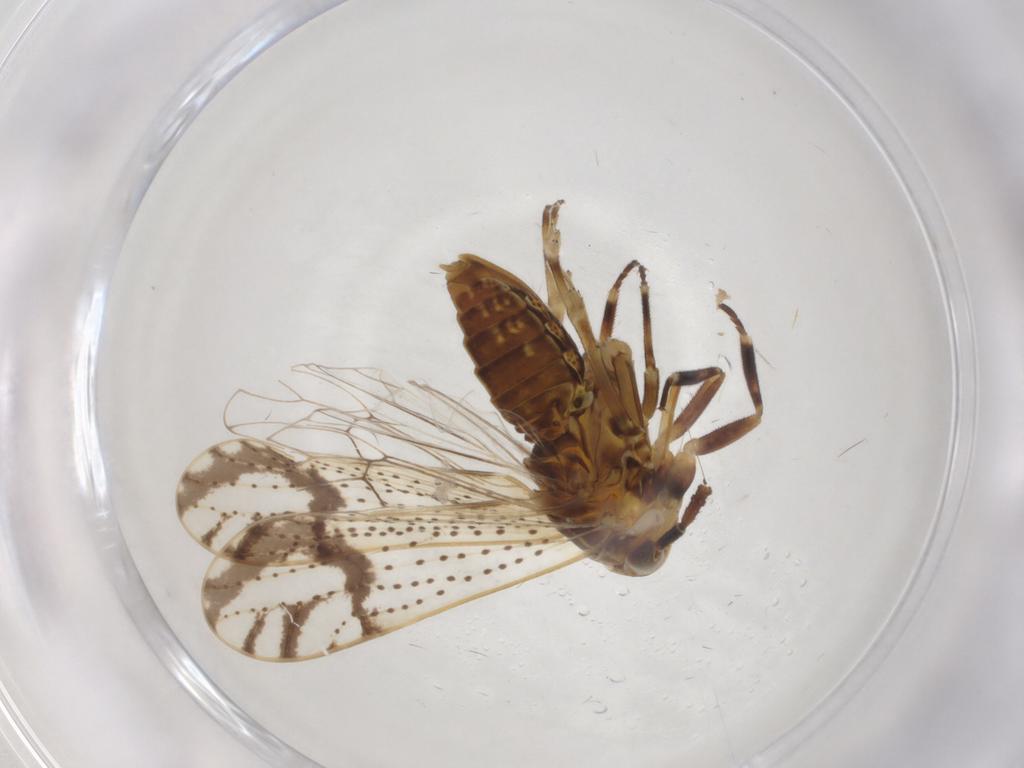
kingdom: Animalia
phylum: Arthropoda
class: Insecta
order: Hemiptera
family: Delphacidae
